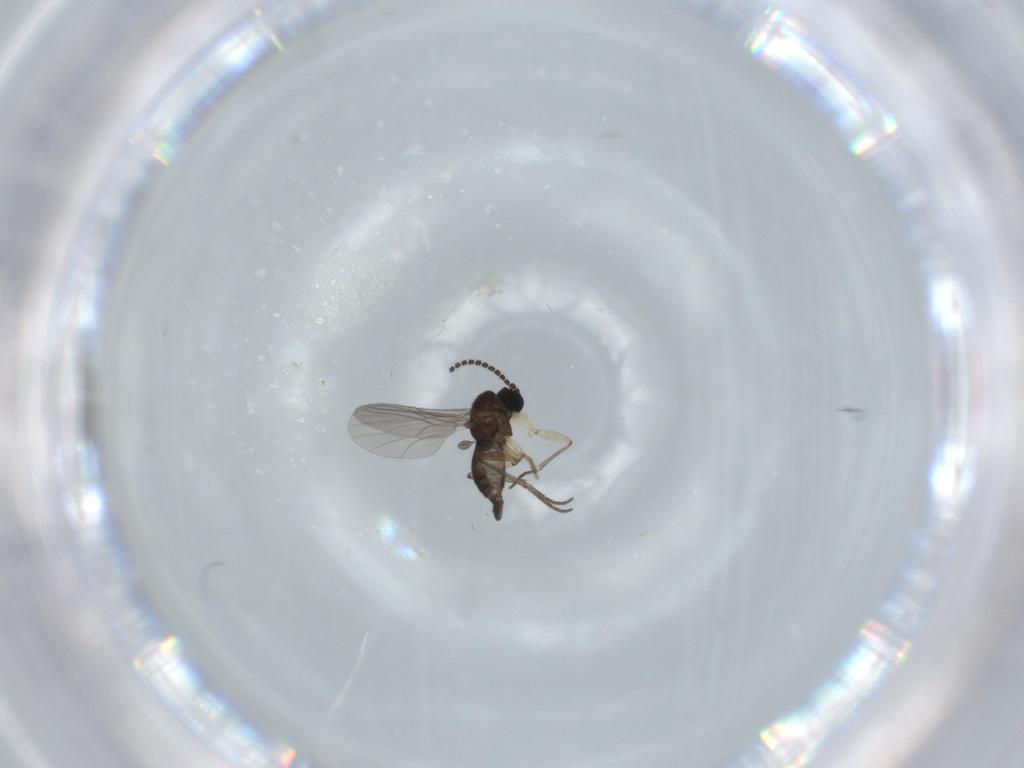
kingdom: Animalia
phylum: Arthropoda
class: Insecta
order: Diptera
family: Sciaridae
